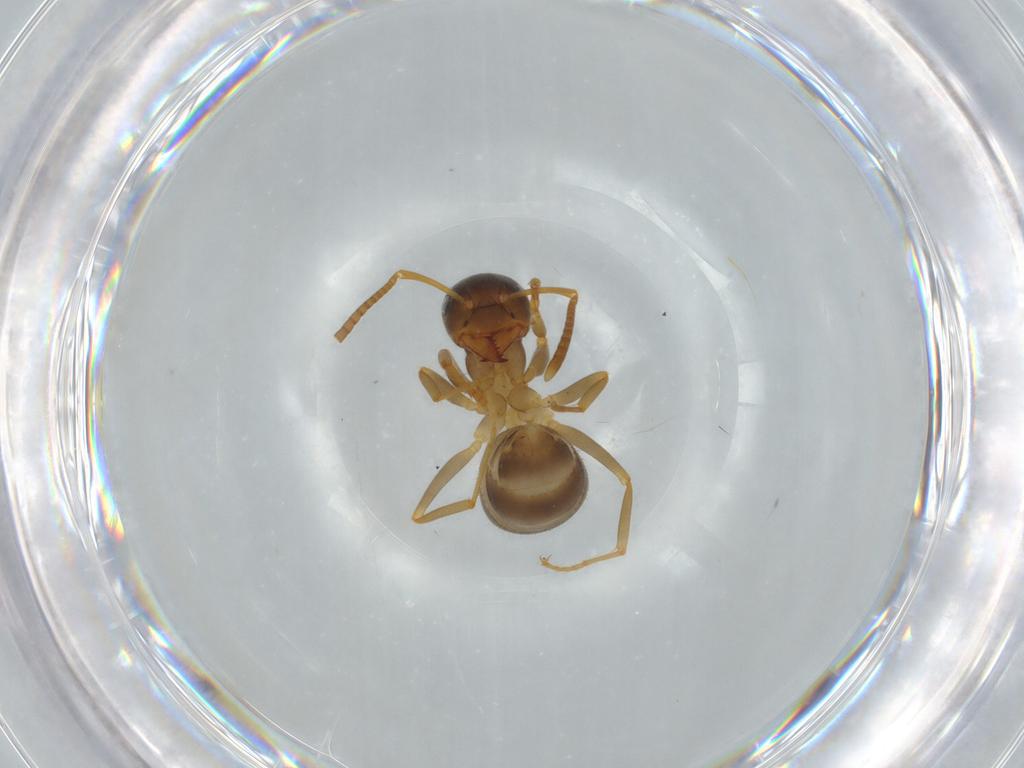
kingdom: Animalia
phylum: Arthropoda
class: Insecta
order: Hymenoptera
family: Formicidae
